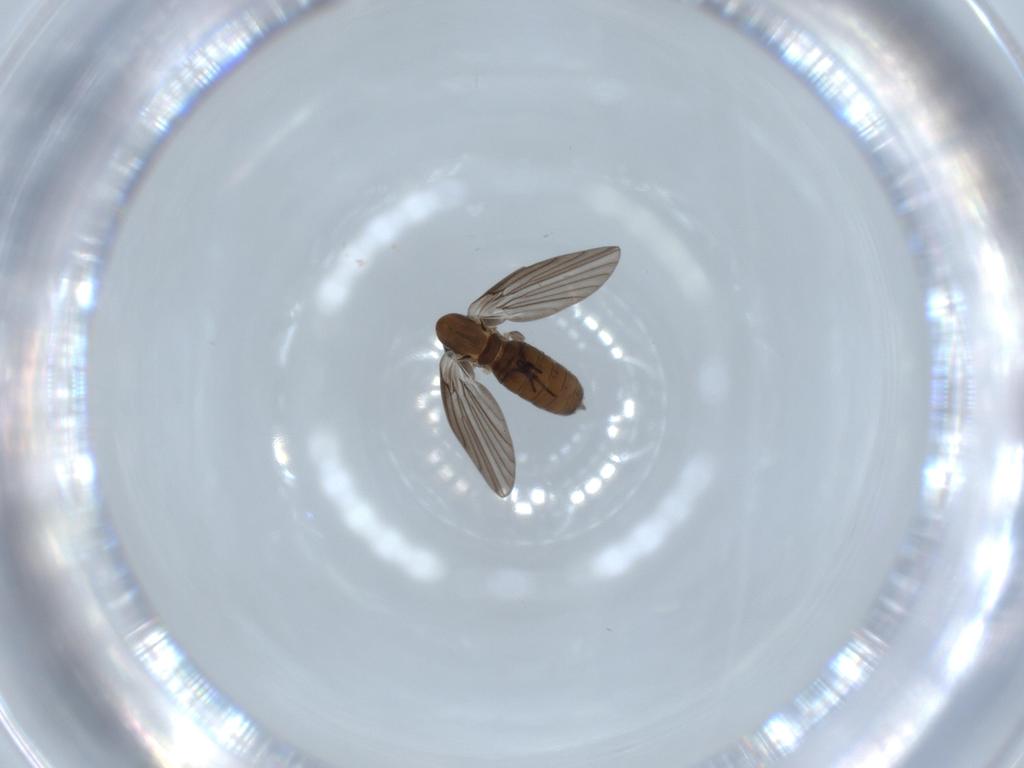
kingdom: Animalia
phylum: Arthropoda
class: Insecta
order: Diptera
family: Psychodidae
